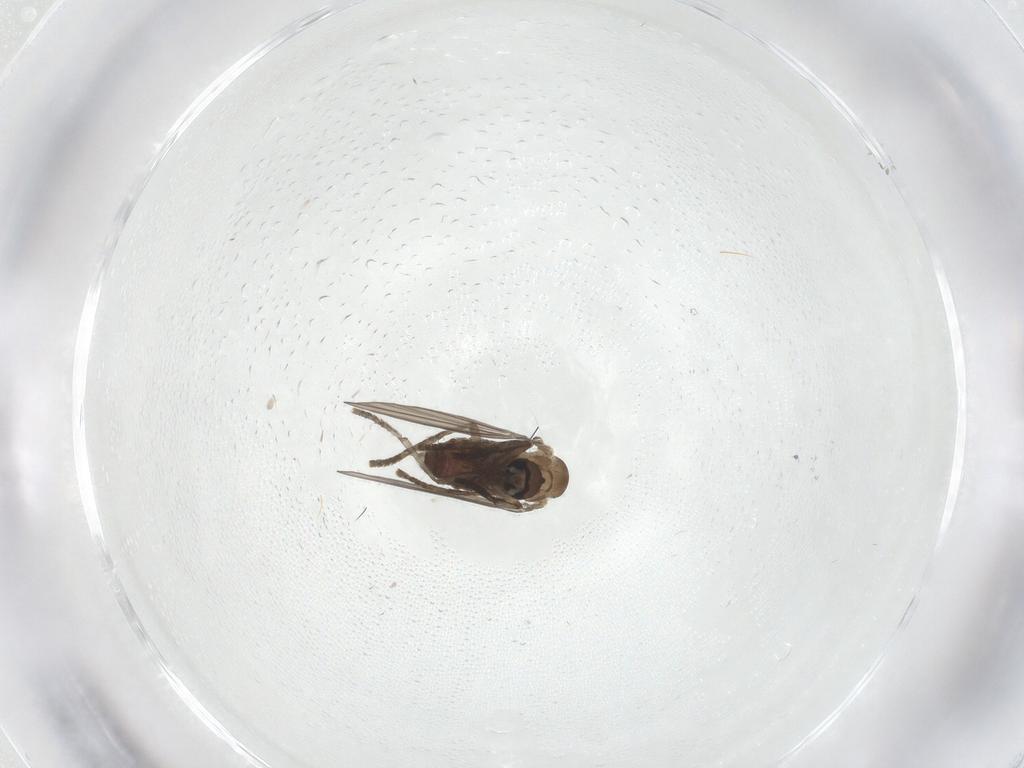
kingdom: Animalia
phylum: Arthropoda
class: Insecta
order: Diptera
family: Psychodidae
